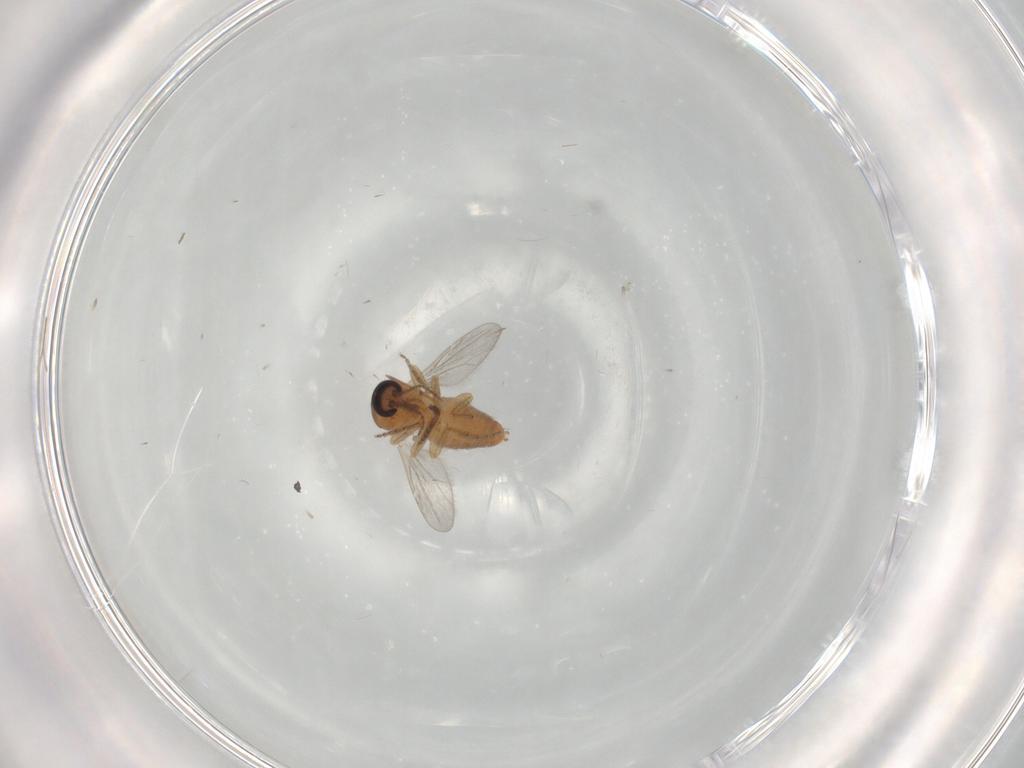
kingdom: Animalia
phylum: Arthropoda
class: Insecta
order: Diptera
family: Ceratopogonidae
